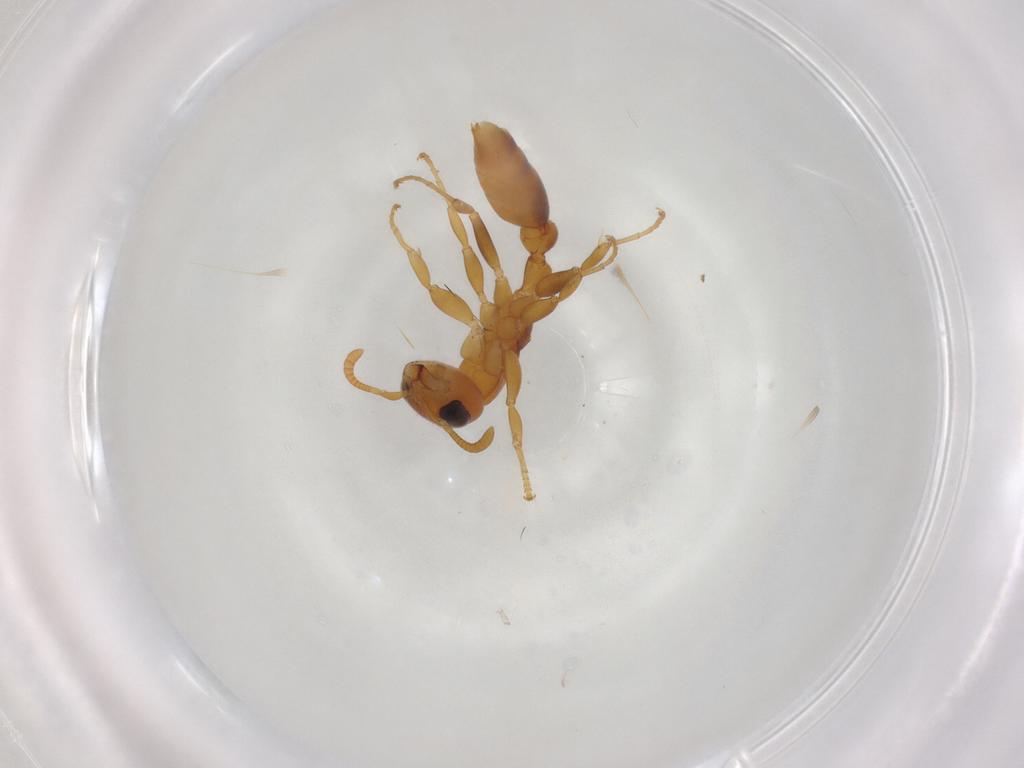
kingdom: Animalia
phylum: Arthropoda
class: Insecta
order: Hymenoptera
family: Formicidae
